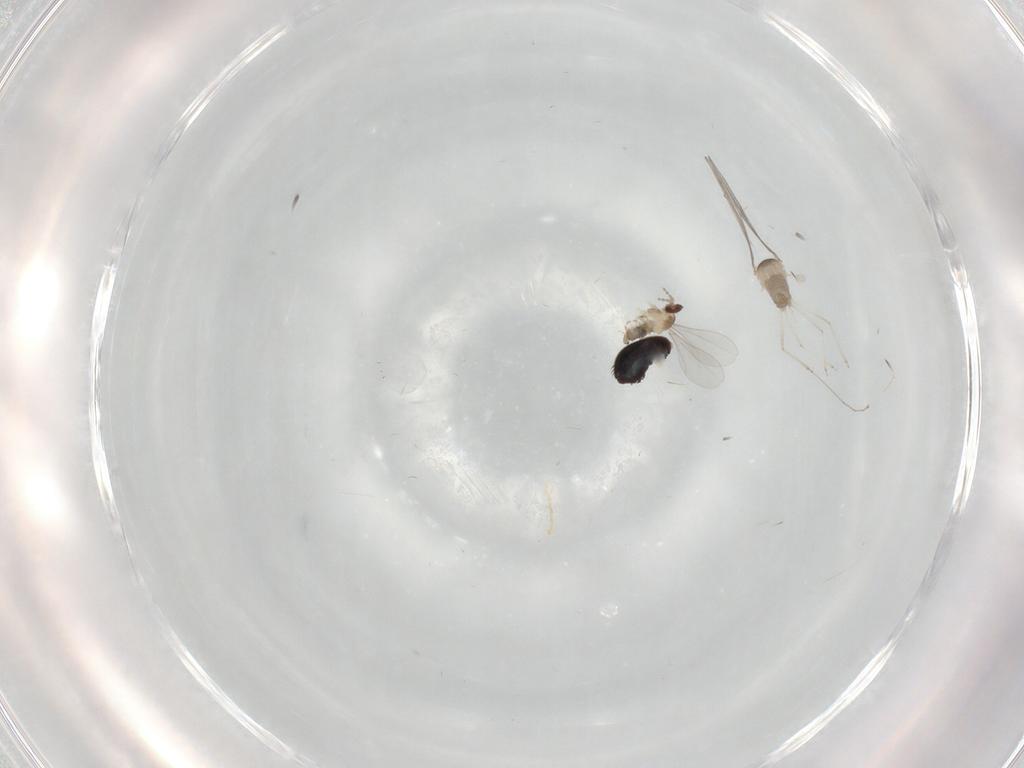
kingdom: Animalia
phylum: Arthropoda
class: Insecta
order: Diptera
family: Phoridae
